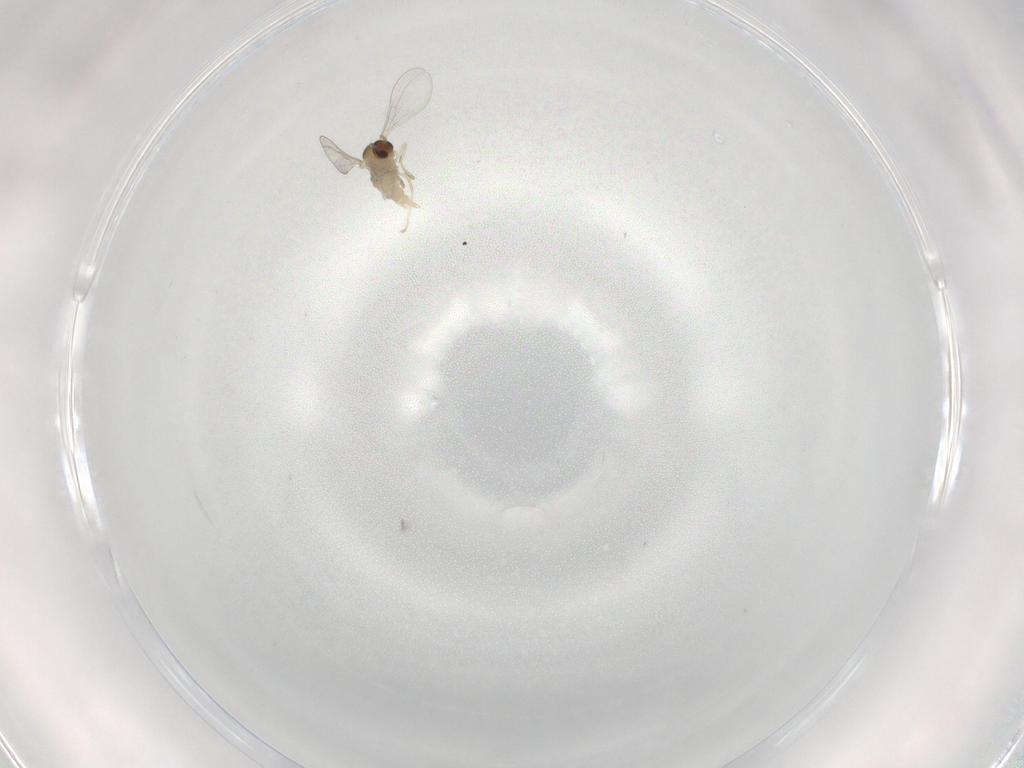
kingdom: Animalia
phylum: Arthropoda
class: Insecta
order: Diptera
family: Cecidomyiidae
